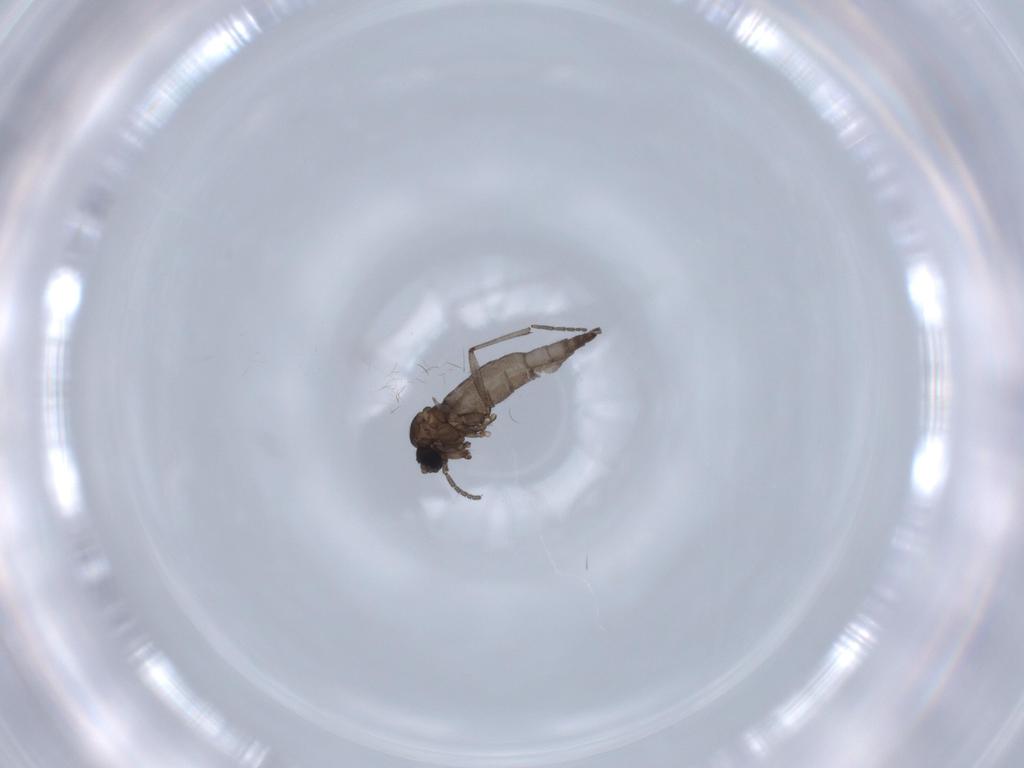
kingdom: Animalia
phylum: Arthropoda
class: Insecta
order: Diptera
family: Sciaridae
